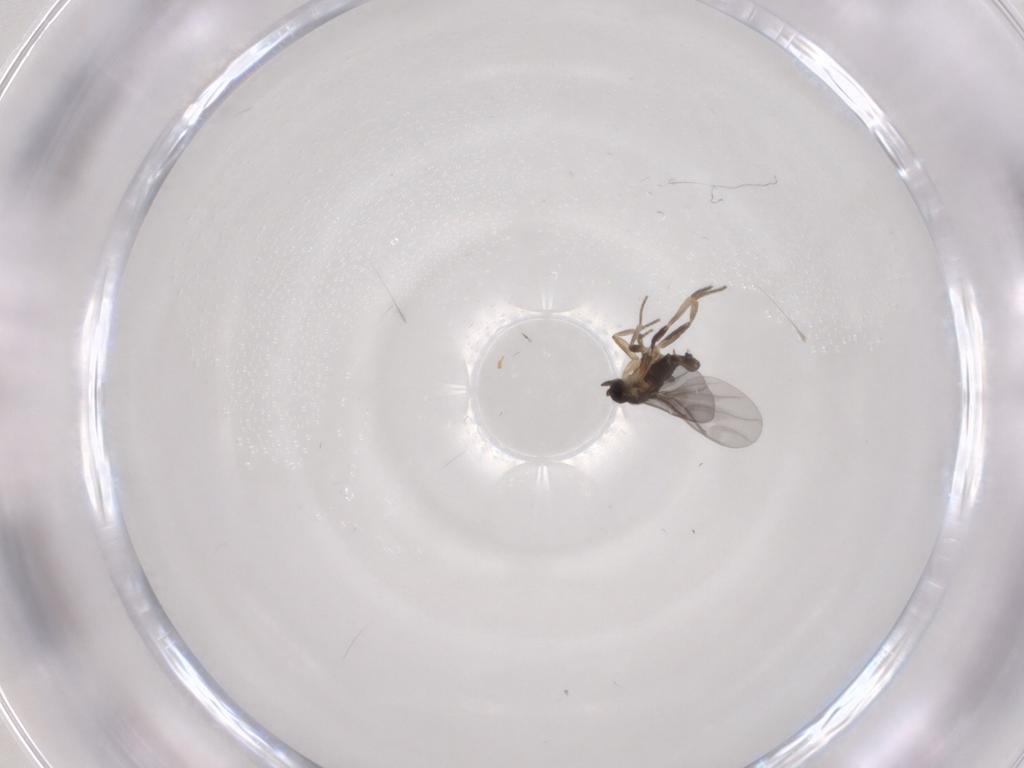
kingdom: Animalia
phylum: Arthropoda
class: Insecta
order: Diptera
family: Phoridae
